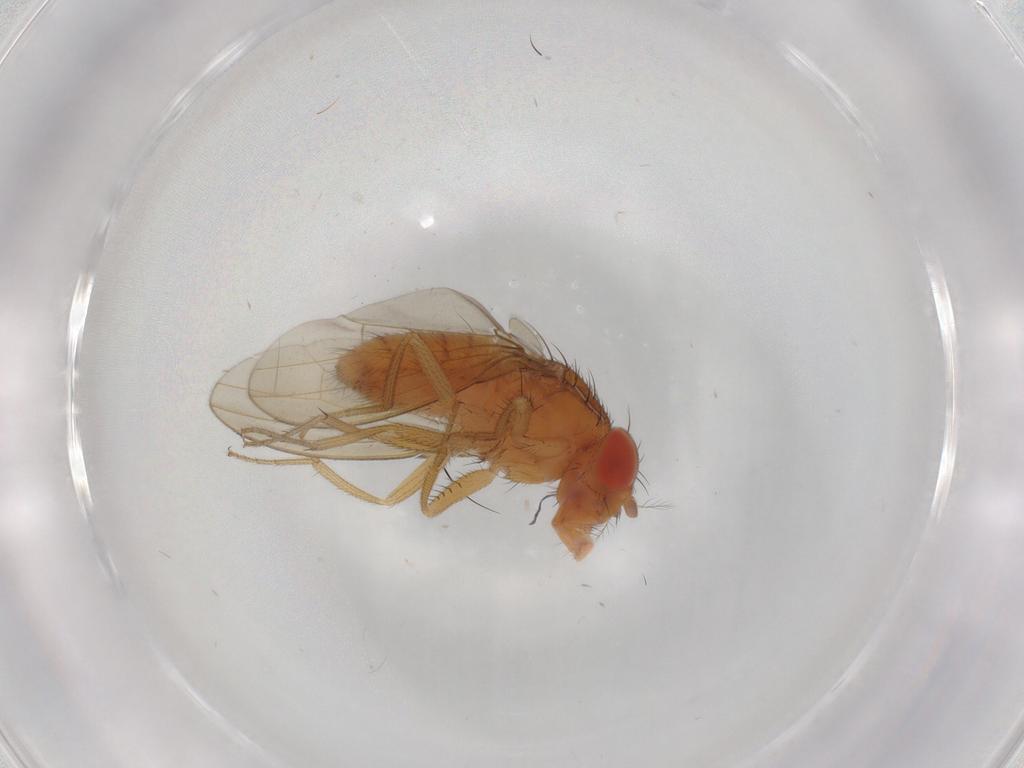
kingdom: Animalia
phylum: Arthropoda
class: Insecta
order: Diptera
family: Drosophilidae
